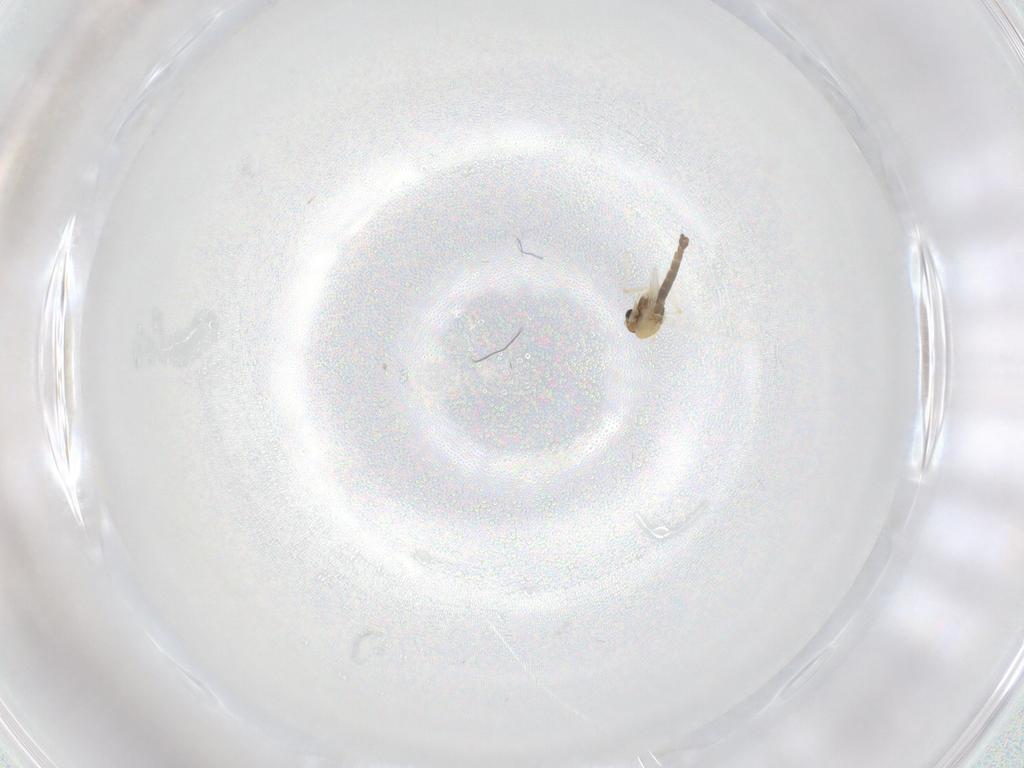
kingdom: Animalia
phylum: Arthropoda
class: Insecta
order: Diptera
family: Chironomidae
